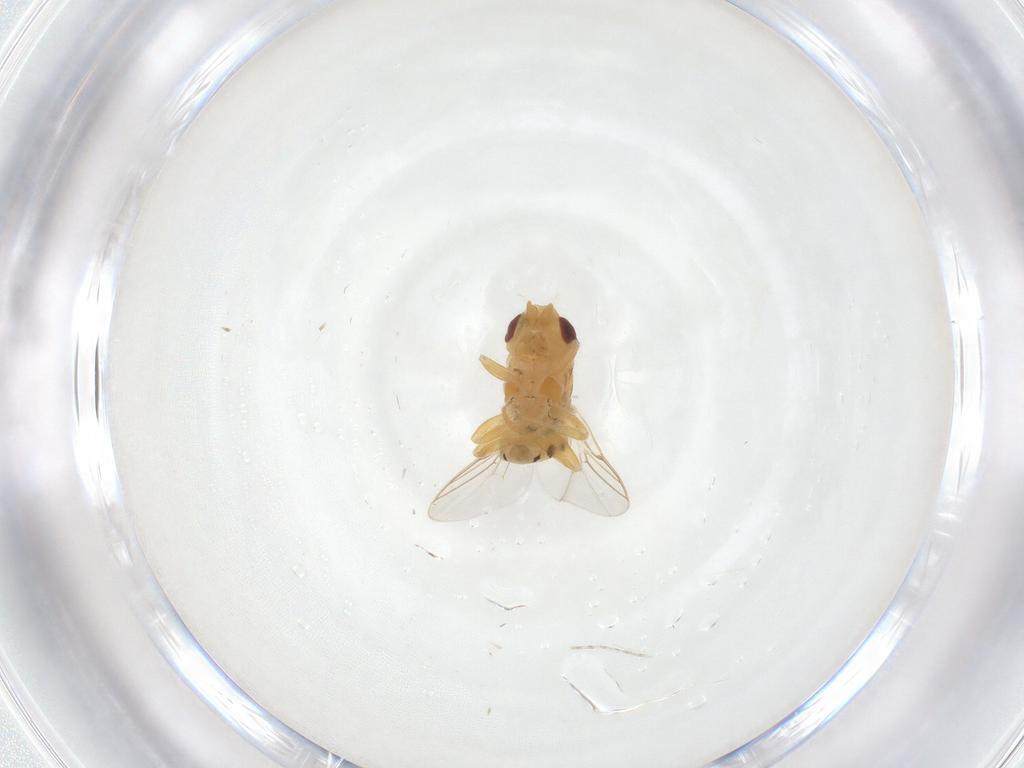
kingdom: Animalia
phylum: Arthropoda
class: Insecta
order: Diptera
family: Chloropidae
